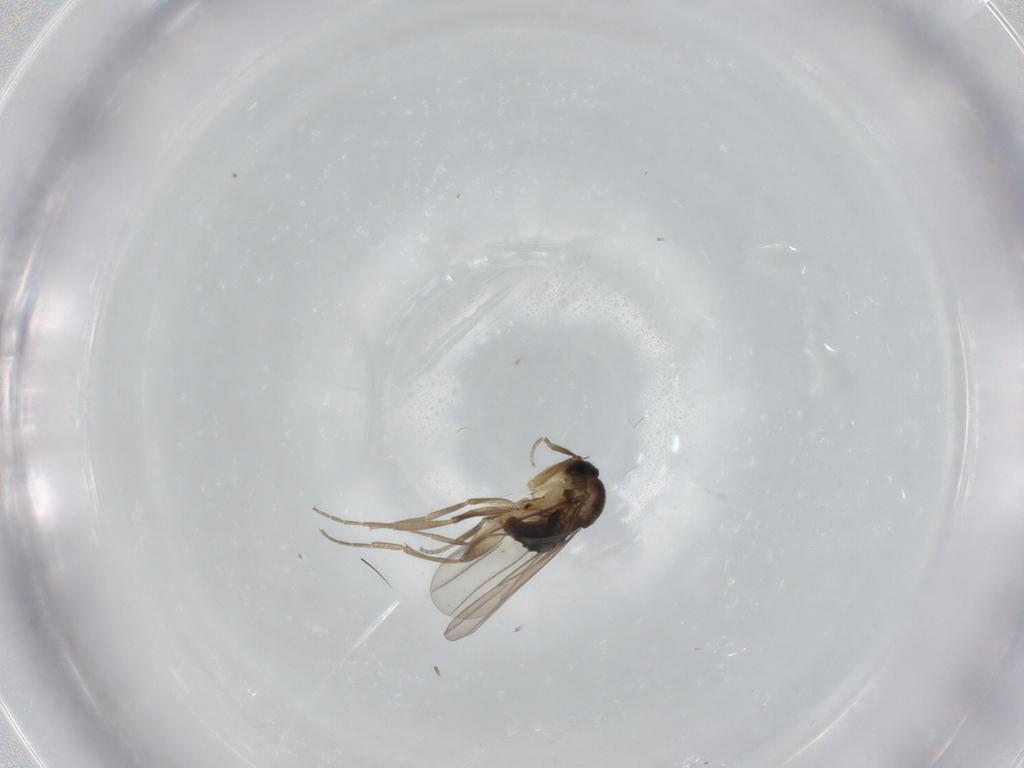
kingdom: Animalia
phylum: Arthropoda
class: Insecta
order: Diptera
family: Phoridae
